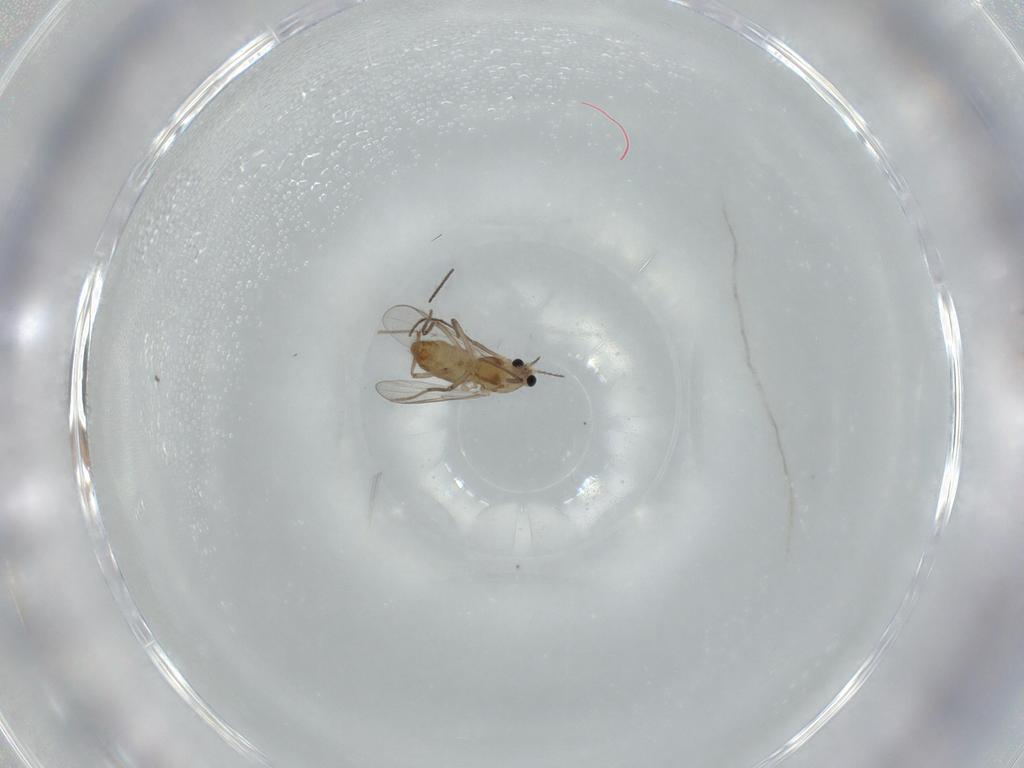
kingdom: Animalia
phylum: Arthropoda
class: Insecta
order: Diptera
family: Chironomidae
